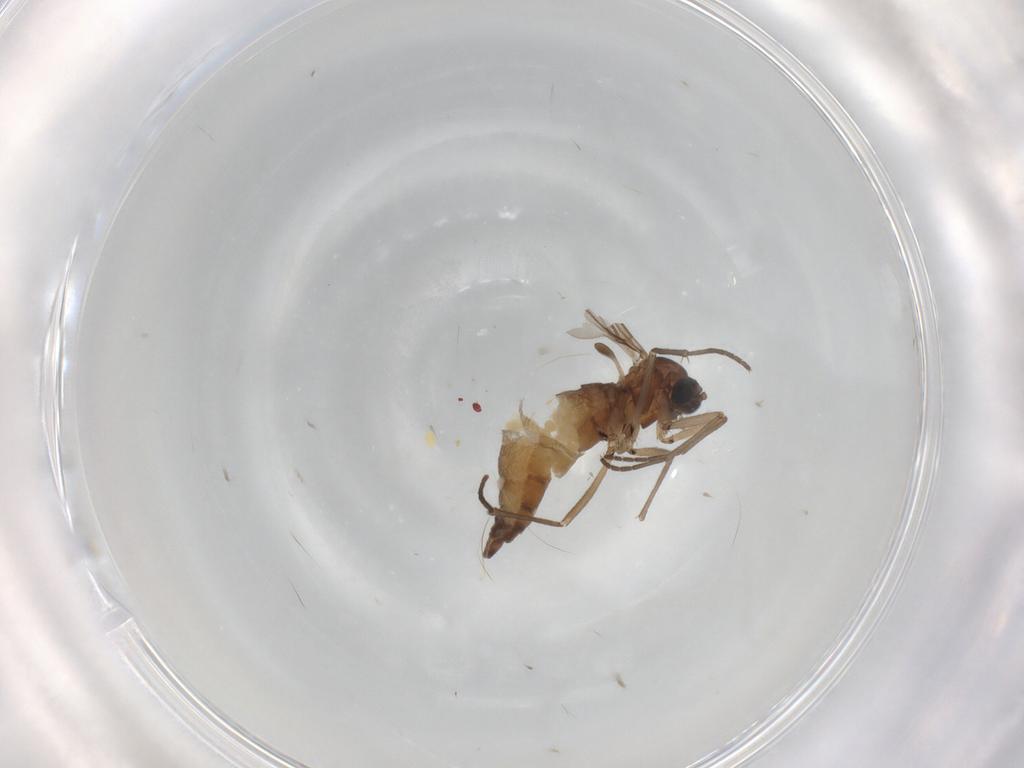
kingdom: Animalia
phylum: Arthropoda
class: Insecta
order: Diptera
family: Sciaridae
